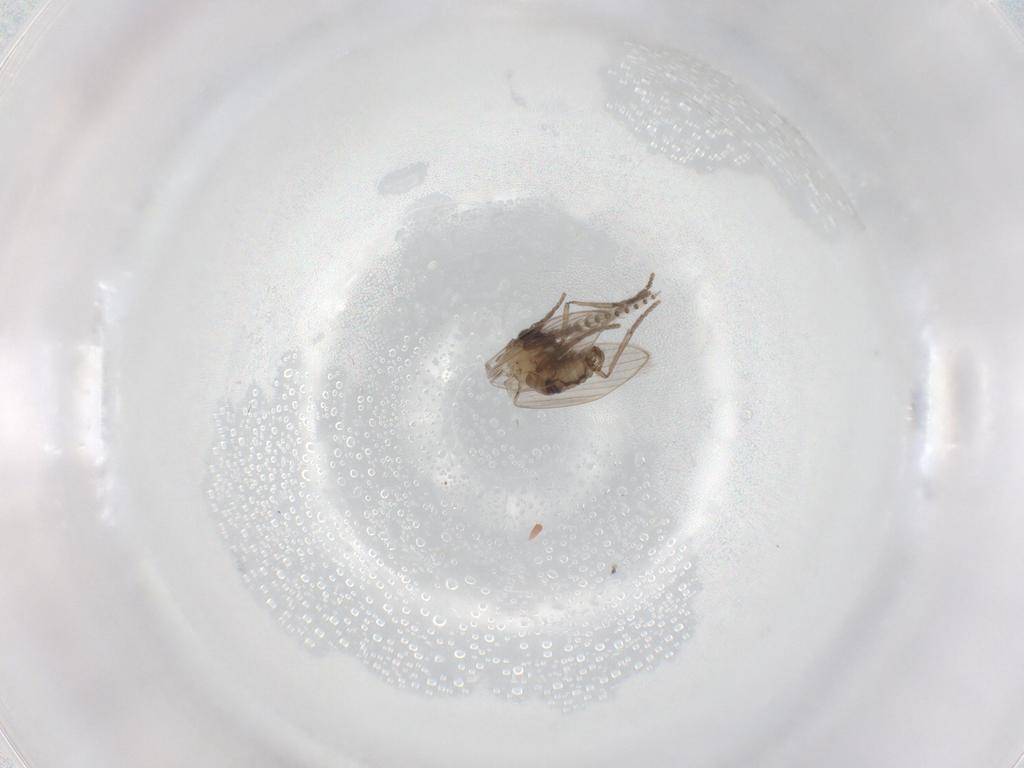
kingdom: Animalia
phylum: Arthropoda
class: Insecta
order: Diptera
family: Psychodidae
